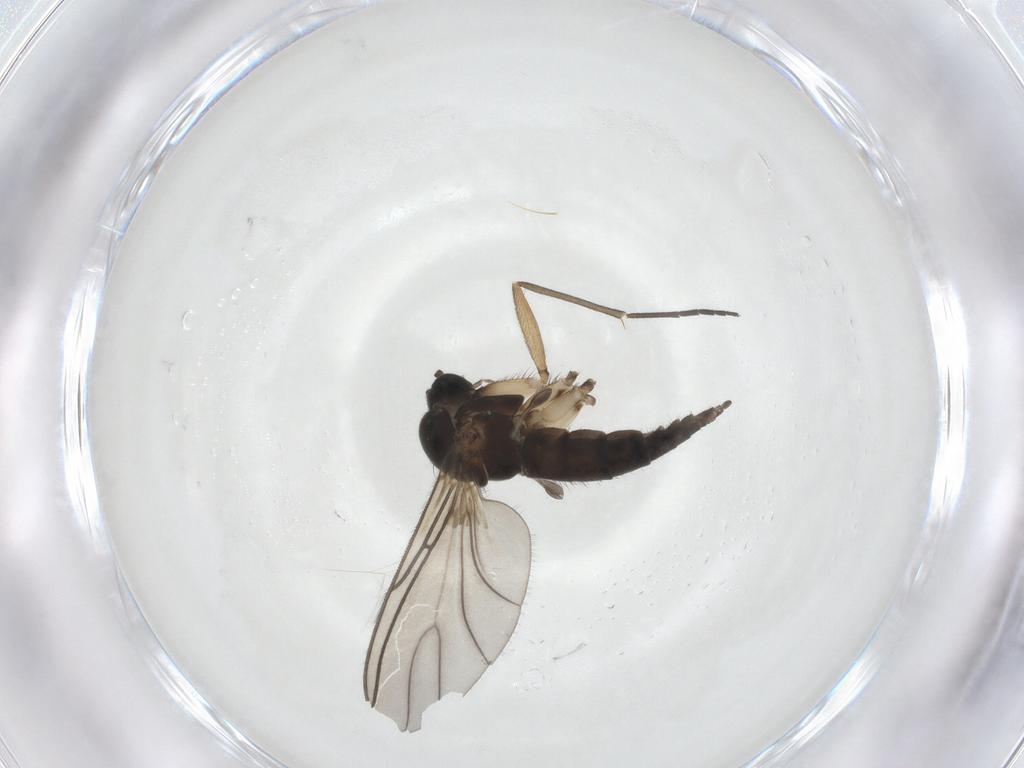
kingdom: Animalia
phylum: Arthropoda
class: Insecta
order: Diptera
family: Sciaridae
